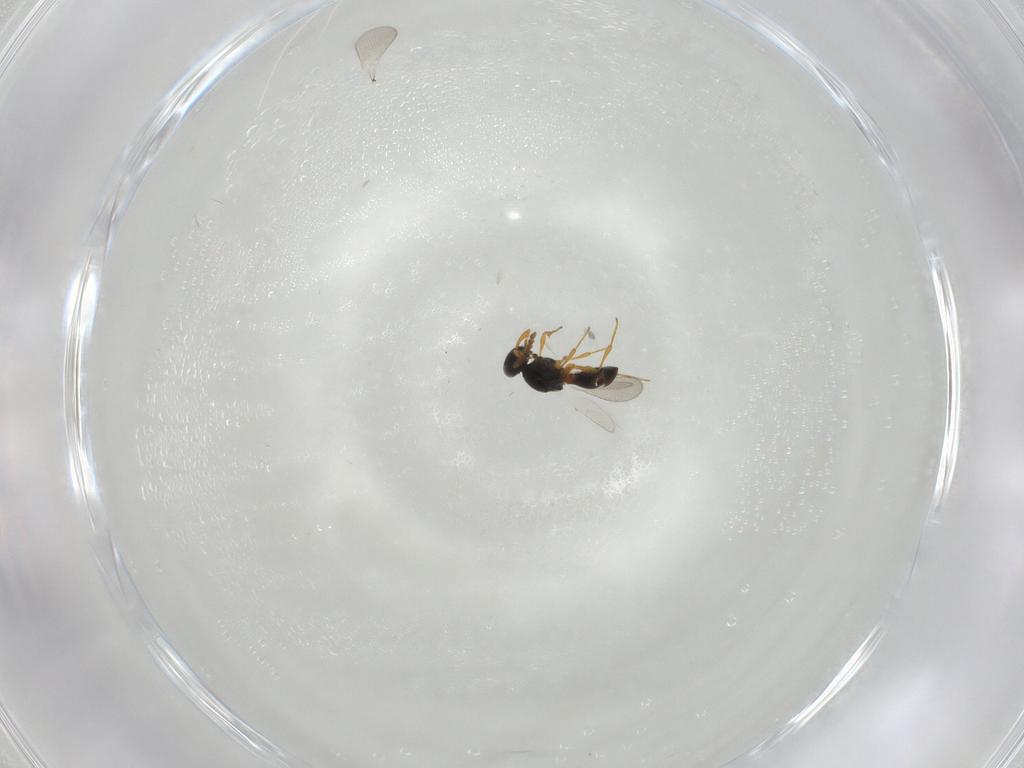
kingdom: Animalia
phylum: Arthropoda
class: Insecta
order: Hymenoptera
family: Platygastridae
